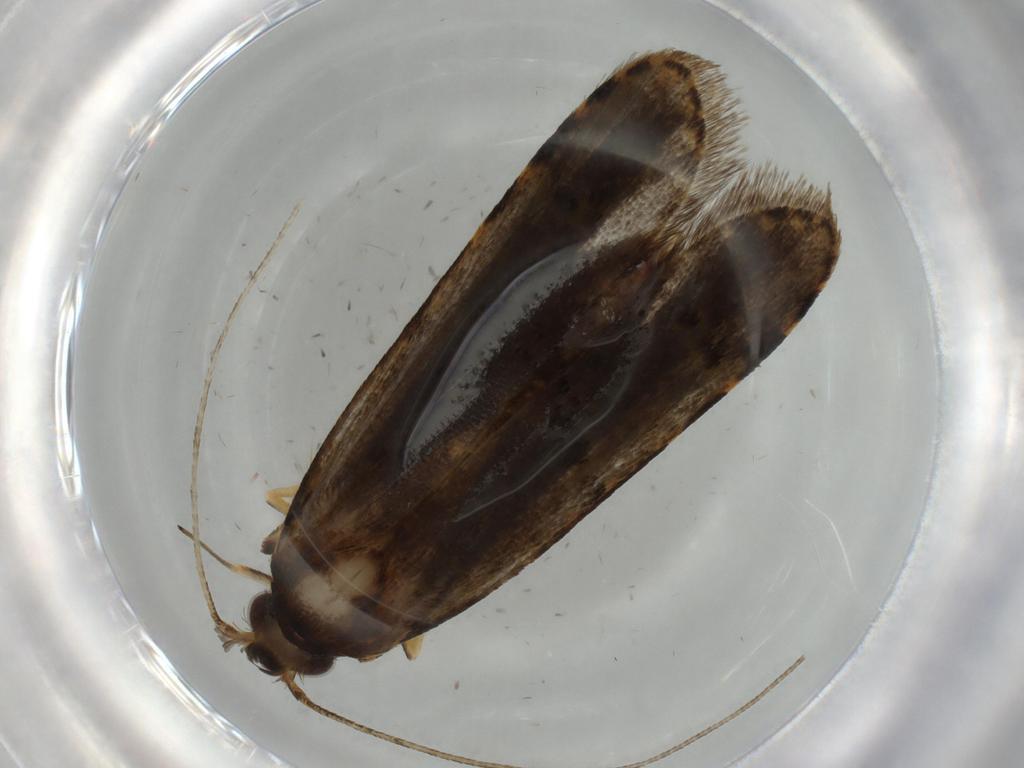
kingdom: Animalia
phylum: Arthropoda
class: Insecta
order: Lepidoptera
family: Autostichidae
